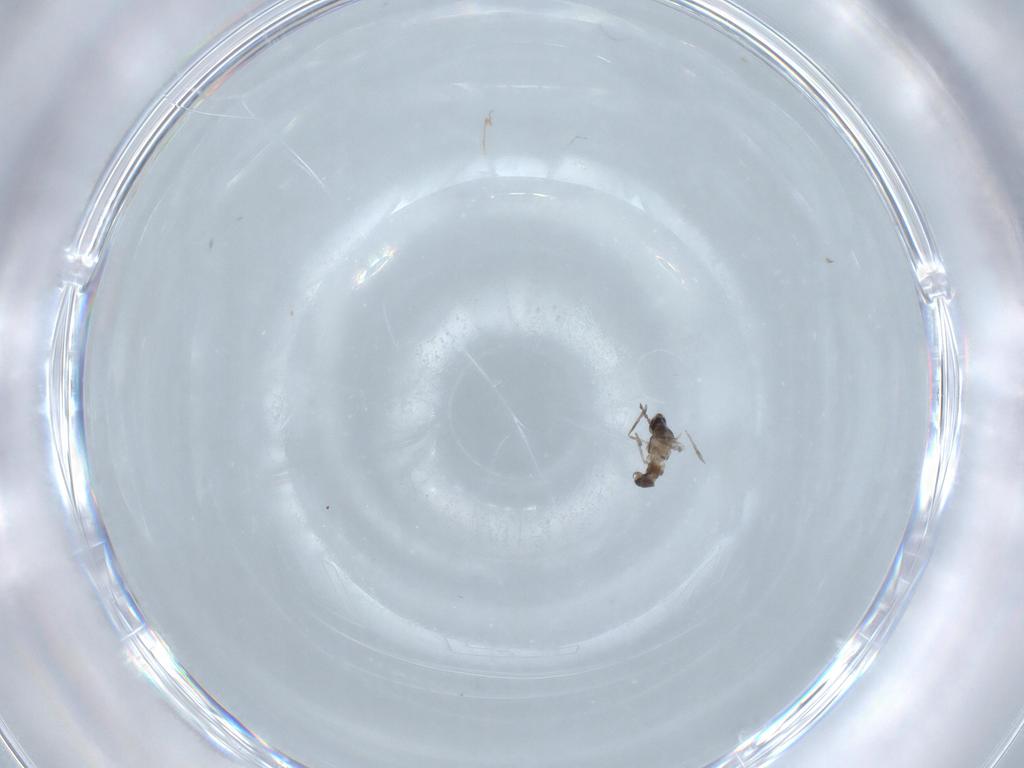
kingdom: Animalia
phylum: Arthropoda
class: Insecta
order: Diptera
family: Cecidomyiidae
